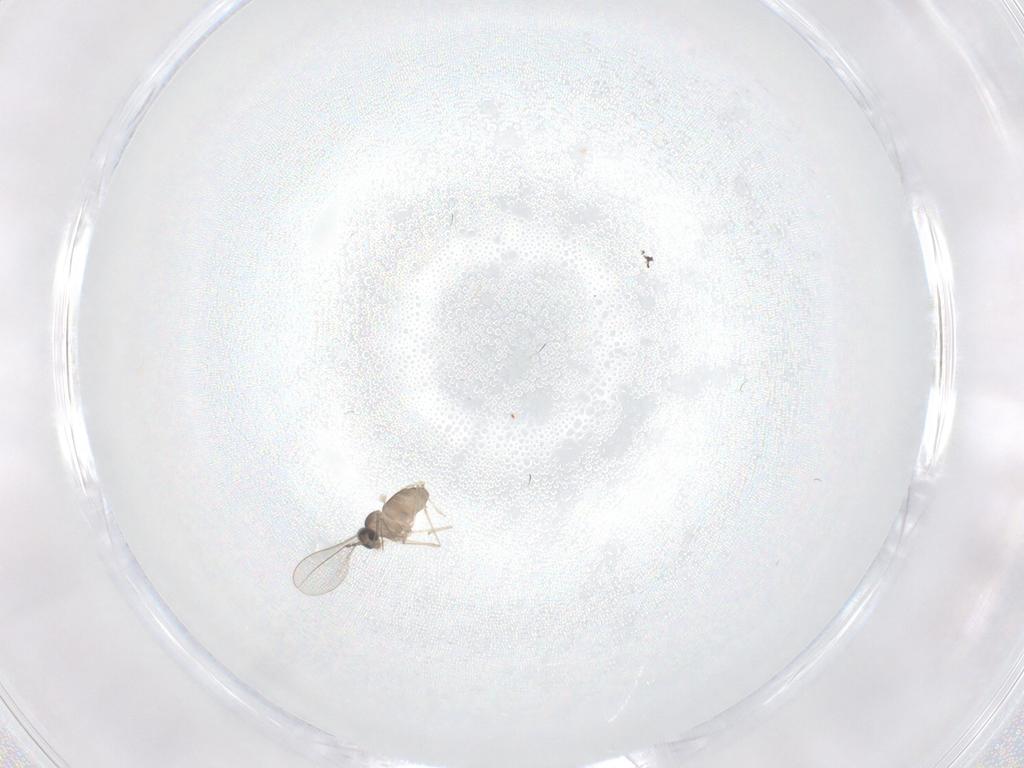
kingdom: Animalia
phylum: Arthropoda
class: Insecta
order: Diptera
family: Cecidomyiidae
